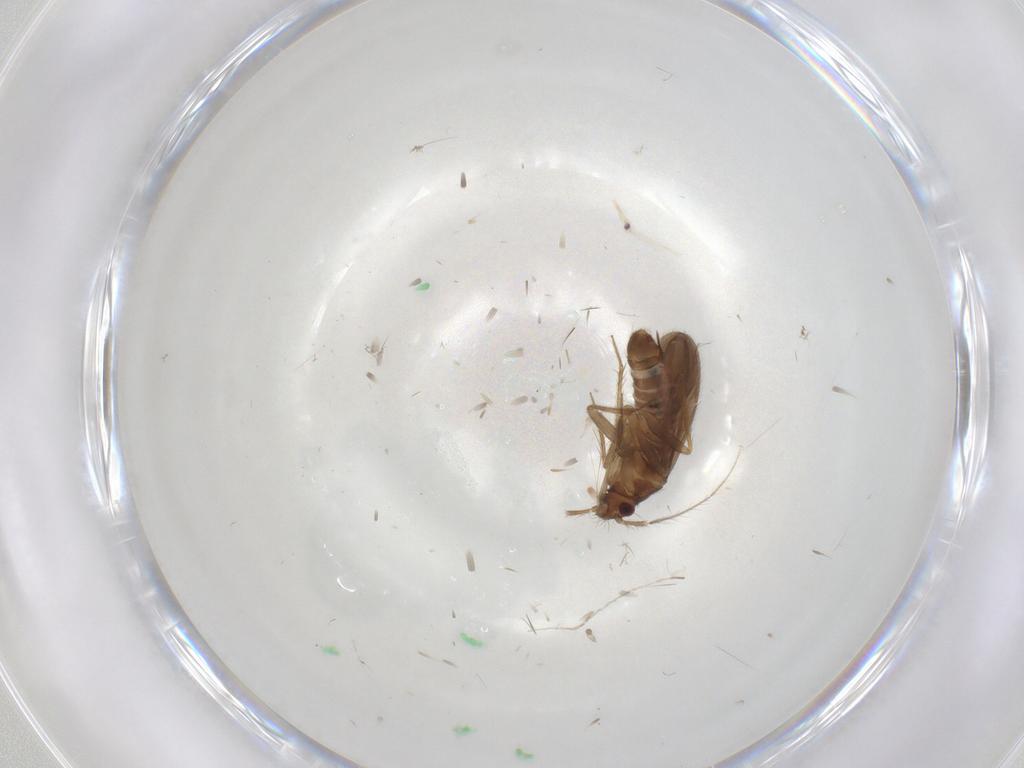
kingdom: Animalia
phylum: Arthropoda
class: Insecta
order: Hemiptera
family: Ceratocombidae
